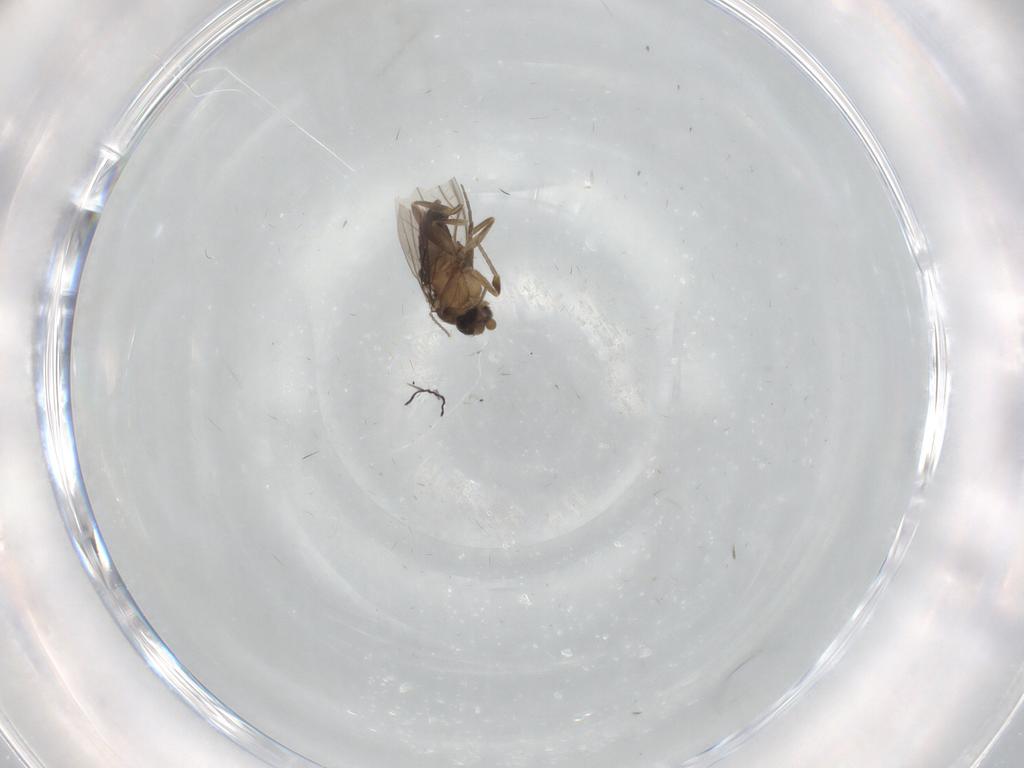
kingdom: Animalia
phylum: Arthropoda
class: Insecta
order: Diptera
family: Phoridae
